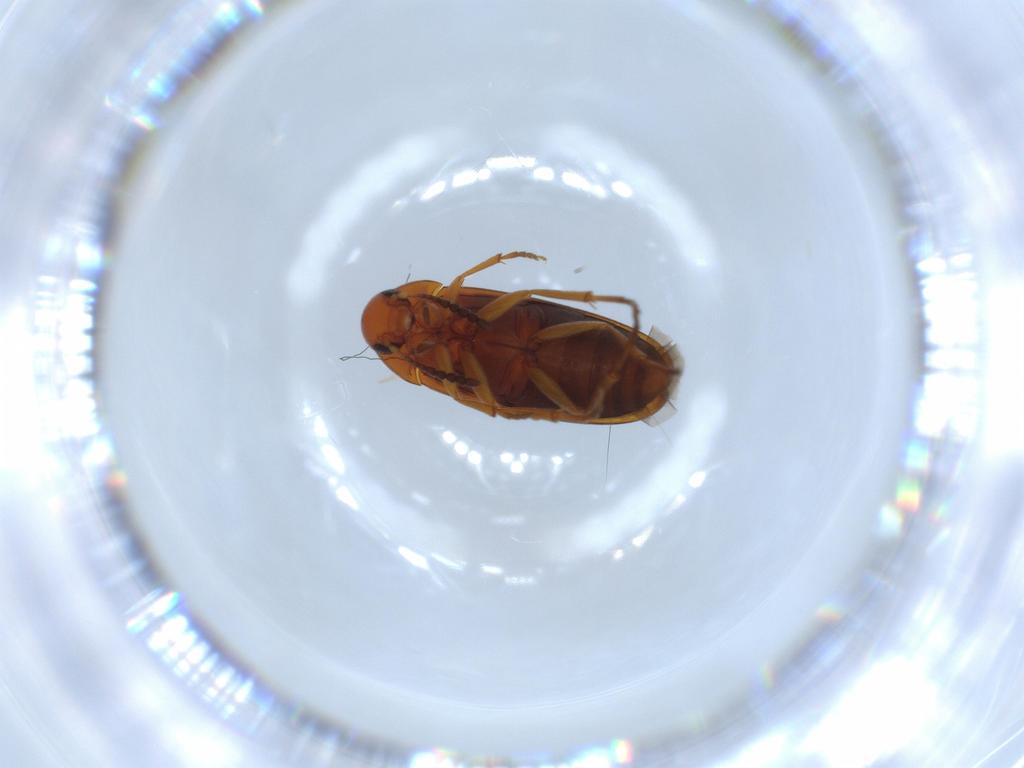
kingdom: Animalia
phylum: Arthropoda
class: Insecta
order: Coleoptera
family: Scraptiidae
